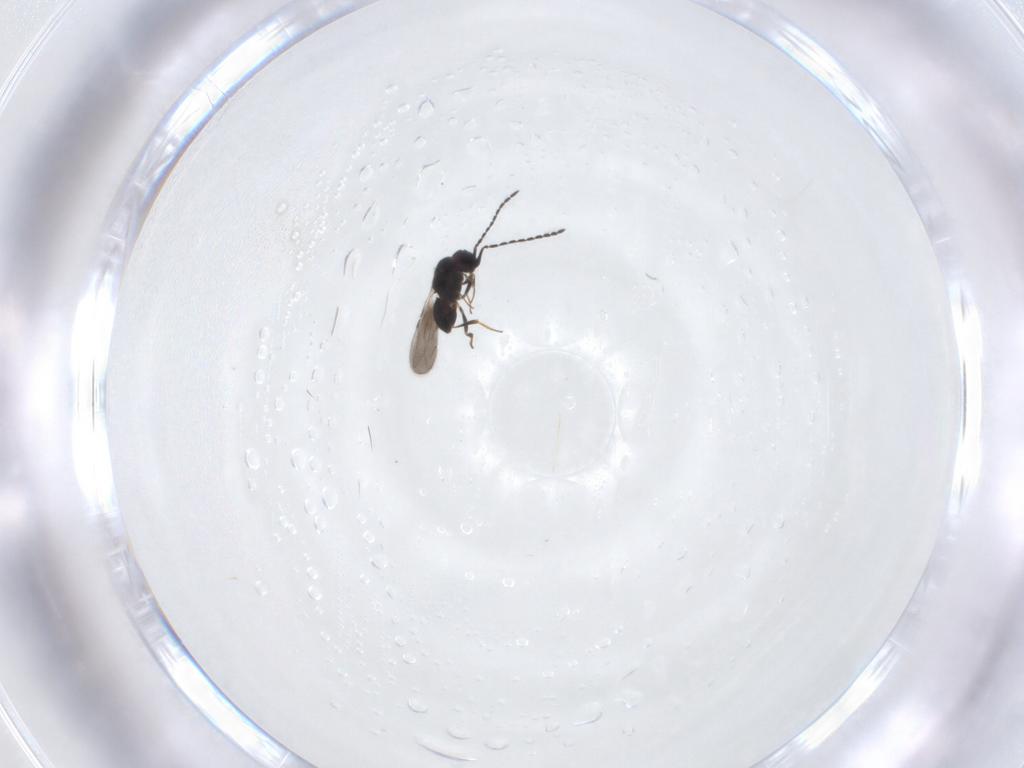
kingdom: Animalia
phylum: Arthropoda
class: Insecta
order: Hymenoptera
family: Ceraphronidae
